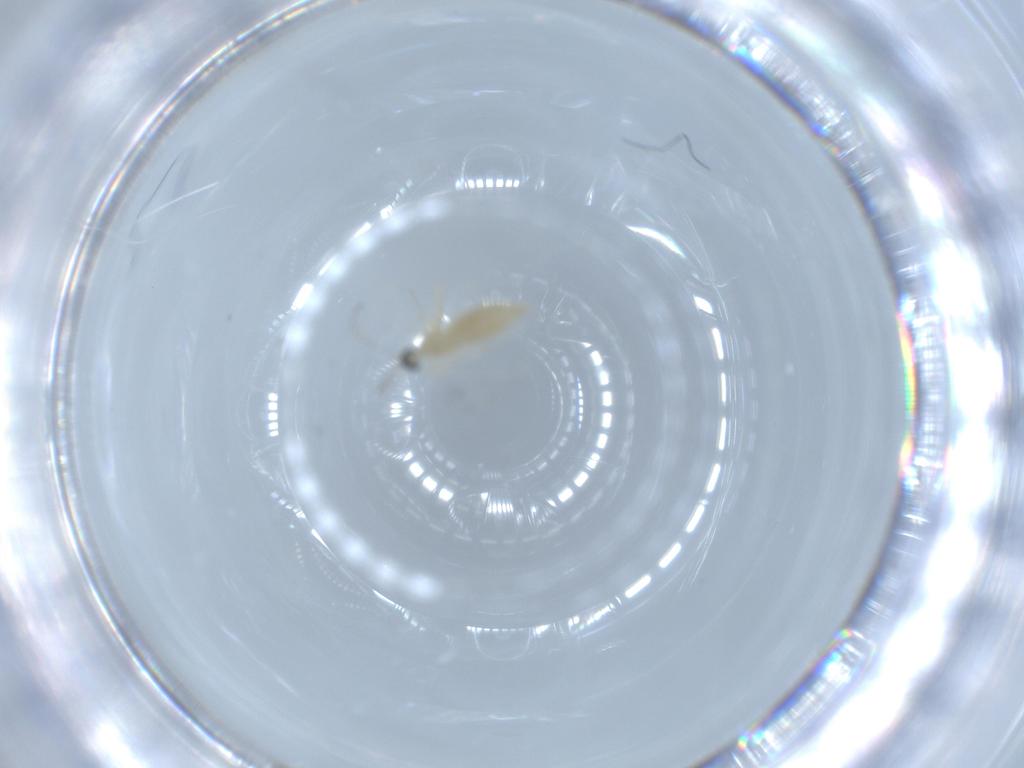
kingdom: Animalia
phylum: Arthropoda
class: Insecta
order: Diptera
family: Cecidomyiidae
